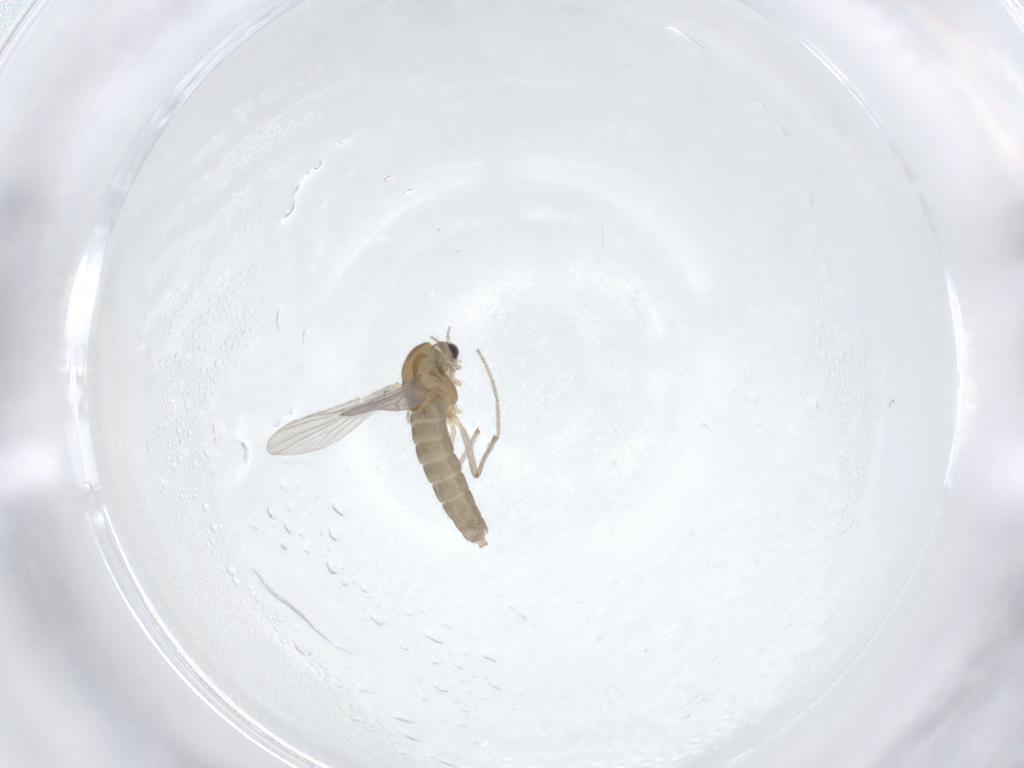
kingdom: Animalia
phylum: Arthropoda
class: Insecta
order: Diptera
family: Chironomidae
